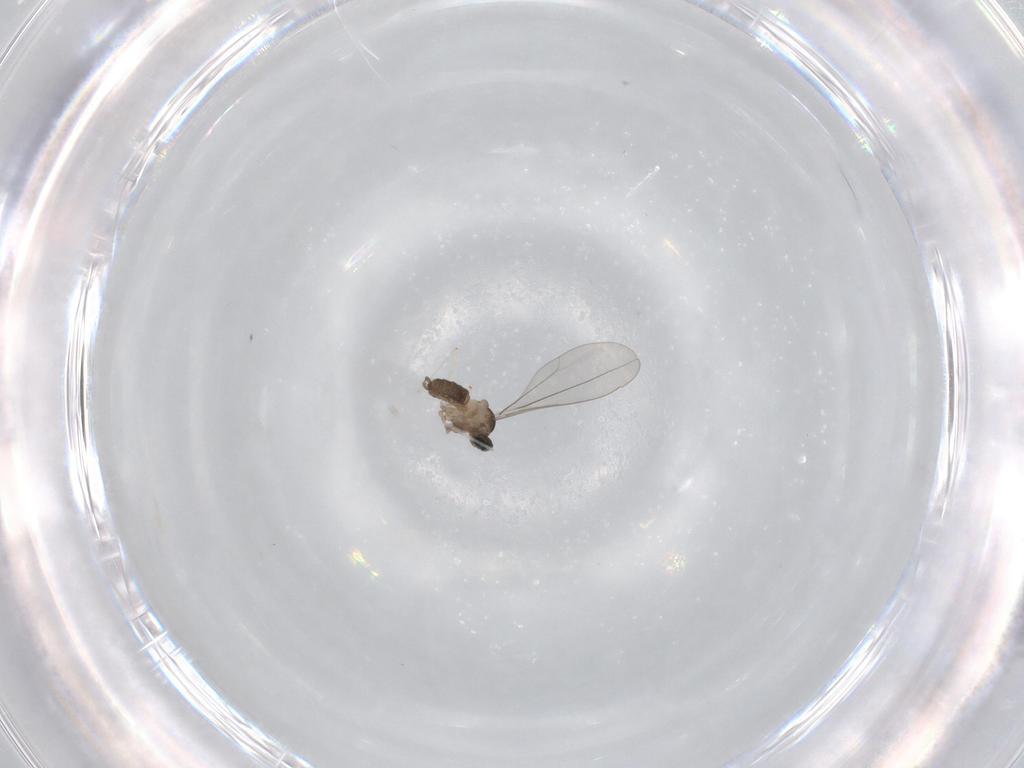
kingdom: Animalia
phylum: Arthropoda
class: Insecta
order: Diptera
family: Cecidomyiidae
